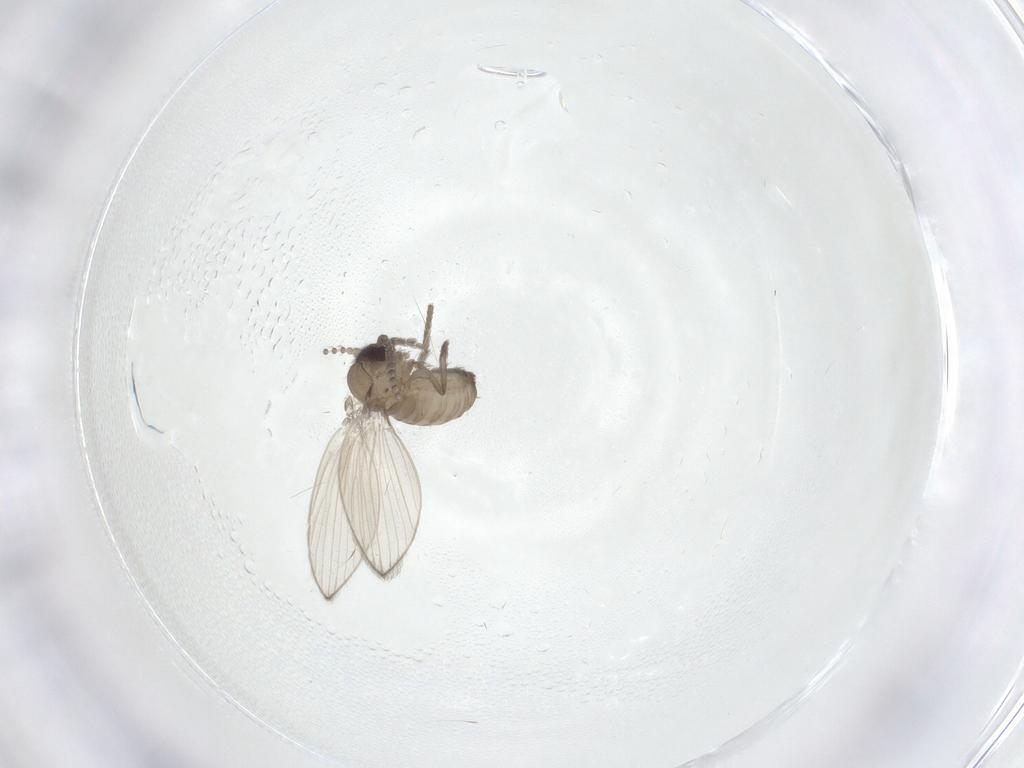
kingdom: Animalia
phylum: Arthropoda
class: Insecta
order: Diptera
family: Psychodidae
